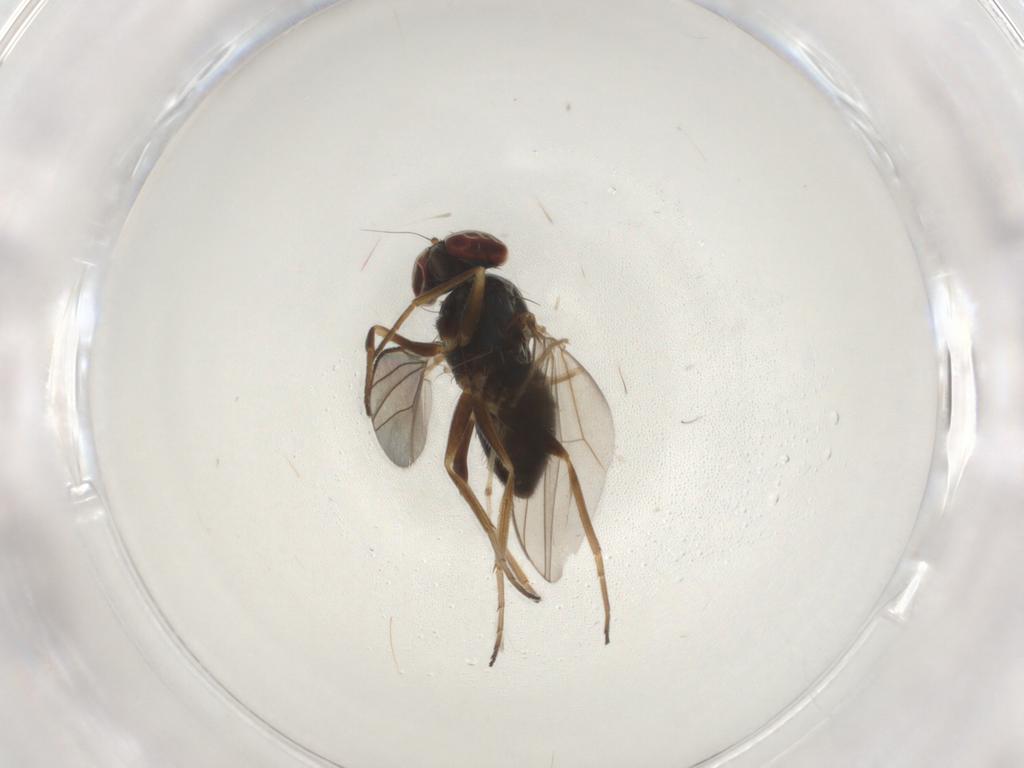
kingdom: Animalia
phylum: Arthropoda
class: Insecta
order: Diptera
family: Dolichopodidae
